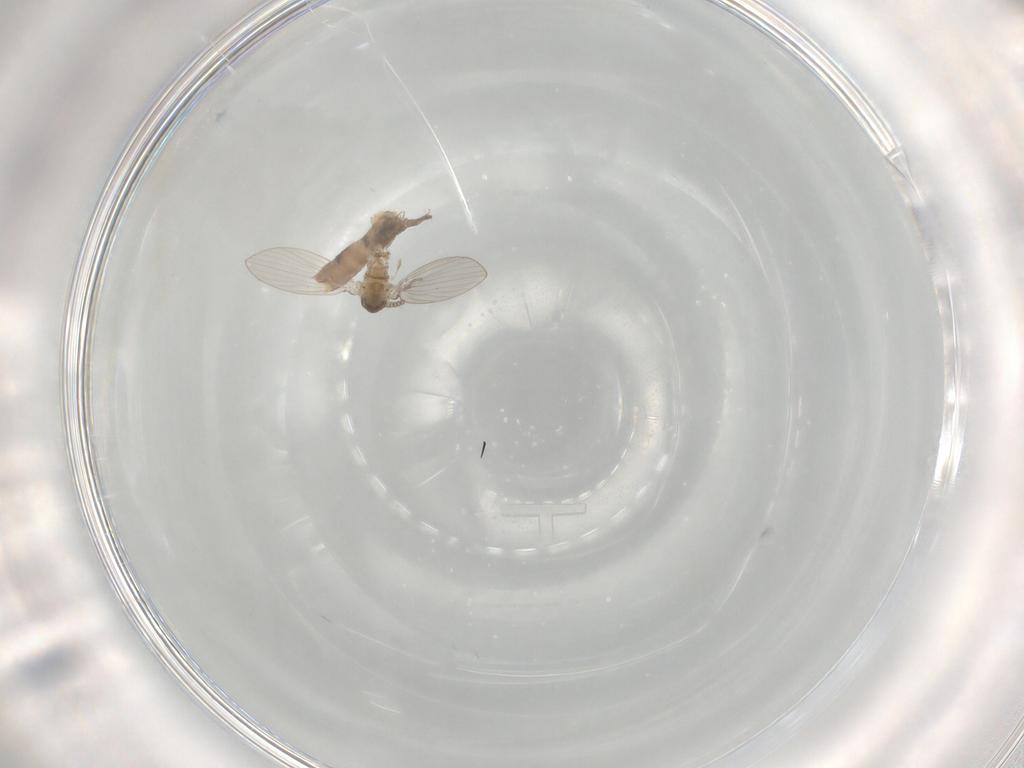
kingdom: Animalia
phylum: Arthropoda
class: Insecta
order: Diptera
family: Chironomidae
